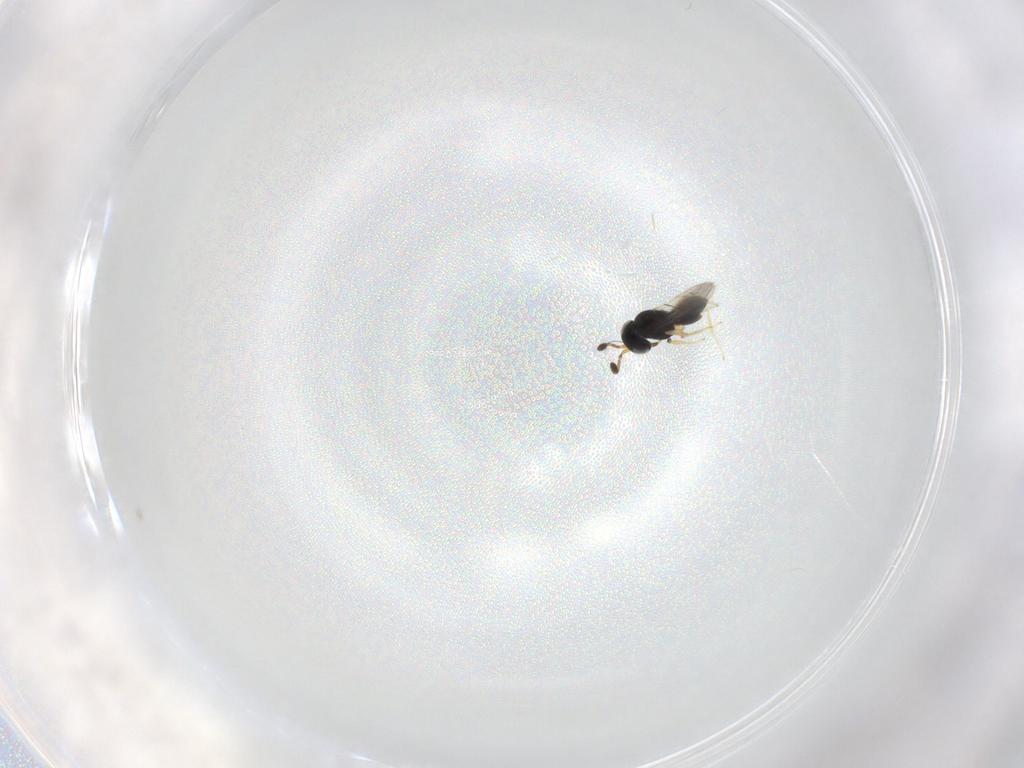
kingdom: Animalia
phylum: Arthropoda
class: Insecta
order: Hymenoptera
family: Scelionidae
